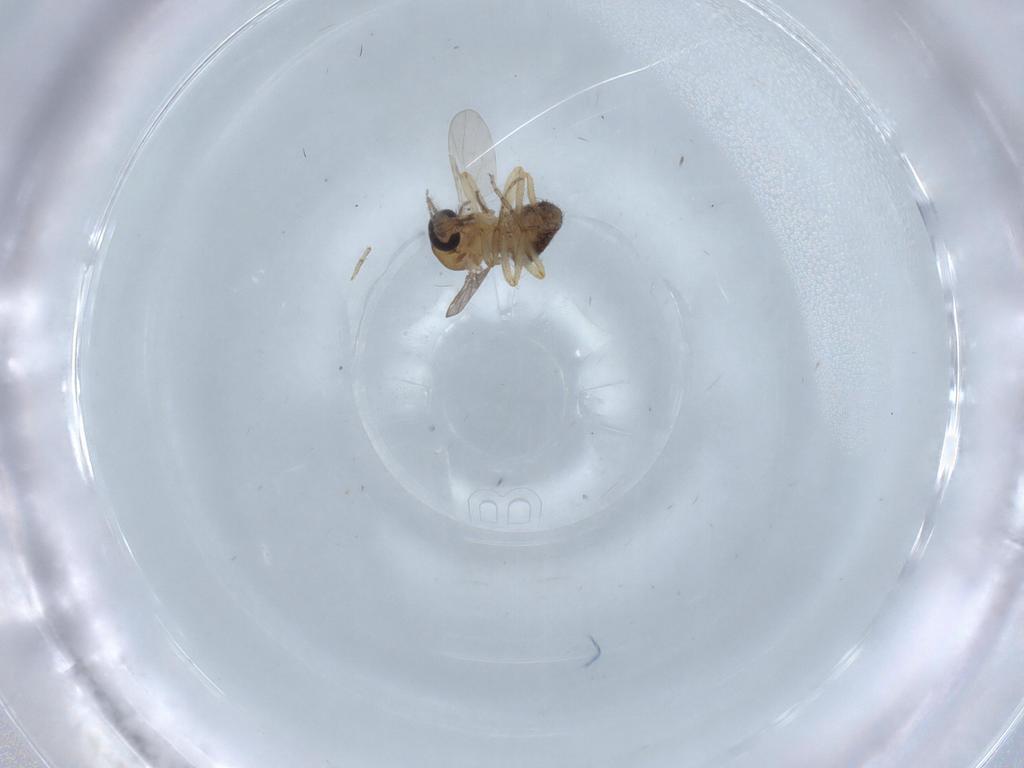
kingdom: Animalia
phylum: Arthropoda
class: Insecta
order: Diptera
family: Ceratopogonidae
